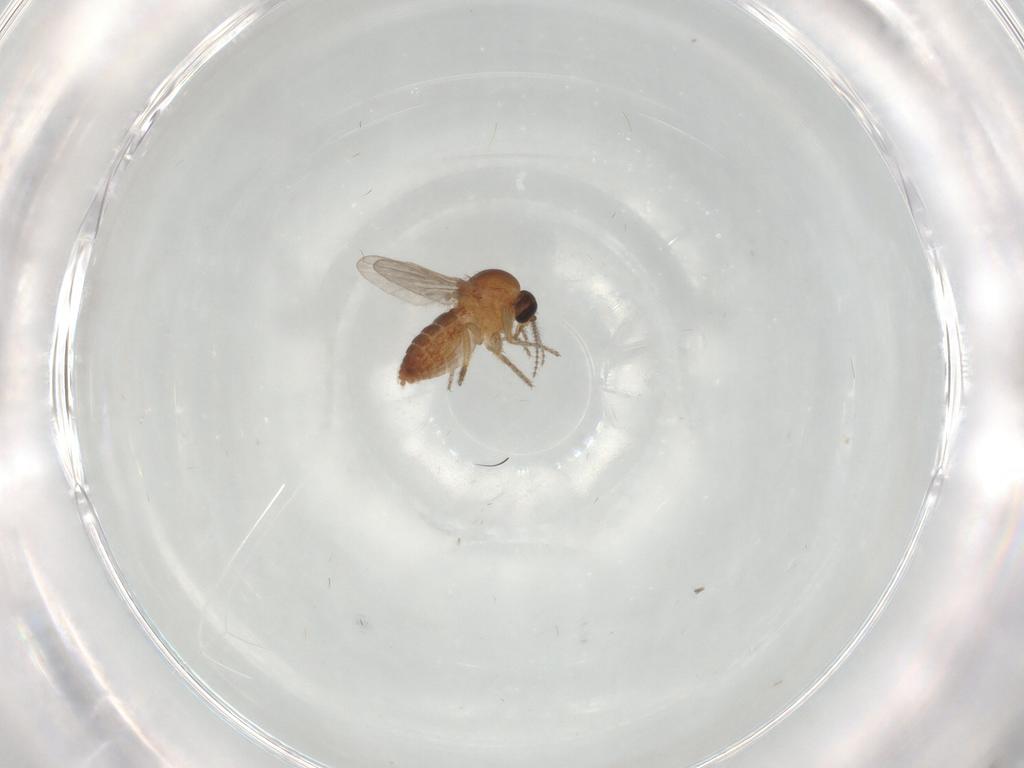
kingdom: Animalia
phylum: Arthropoda
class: Insecta
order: Diptera
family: Ceratopogonidae
